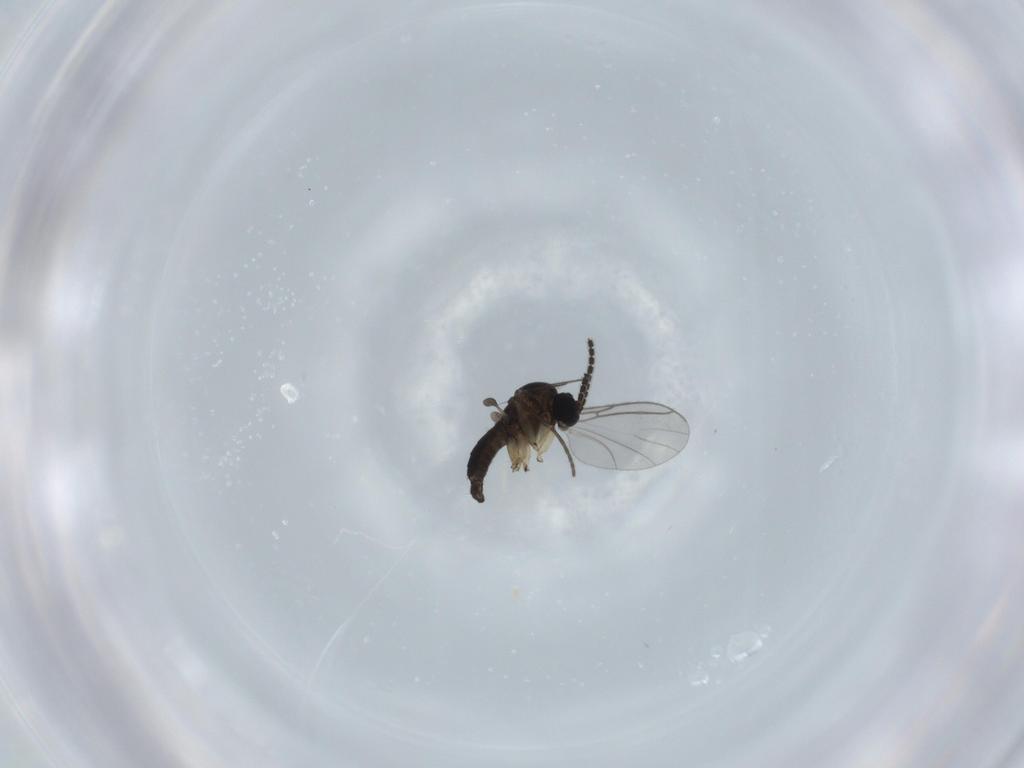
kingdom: Animalia
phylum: Arthropoda
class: Insecta
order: Diptera
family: Sciaridae
